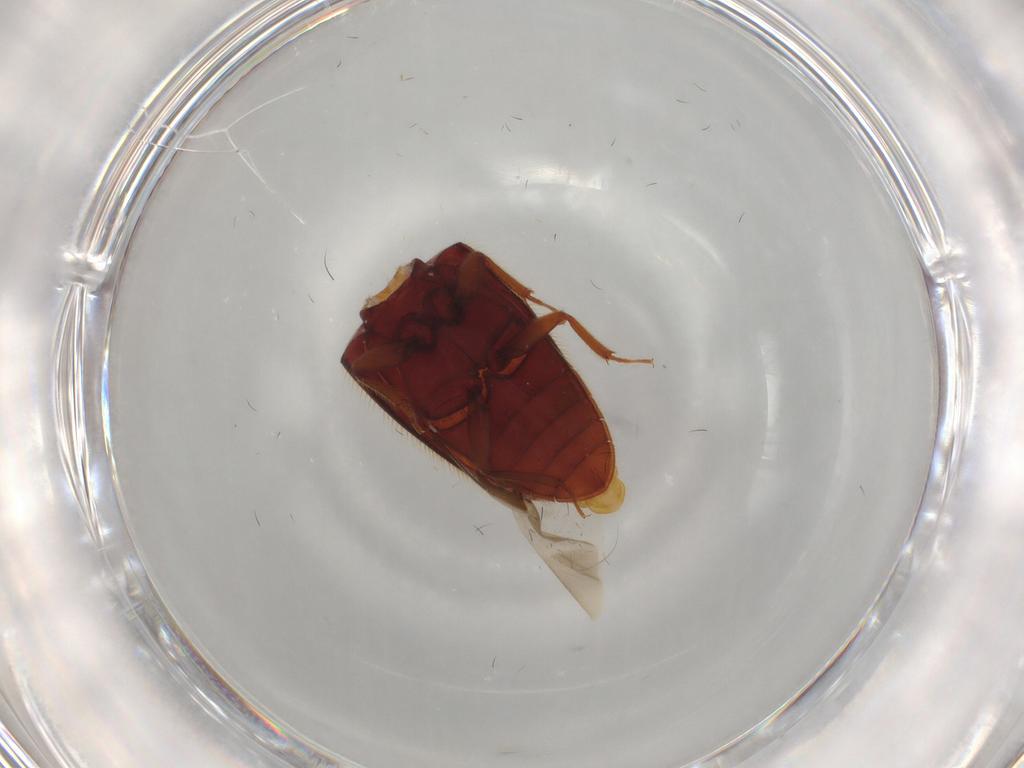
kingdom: Animalia
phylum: Arthropoda
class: Insecta
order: Coleoptera
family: Biphyllidae
